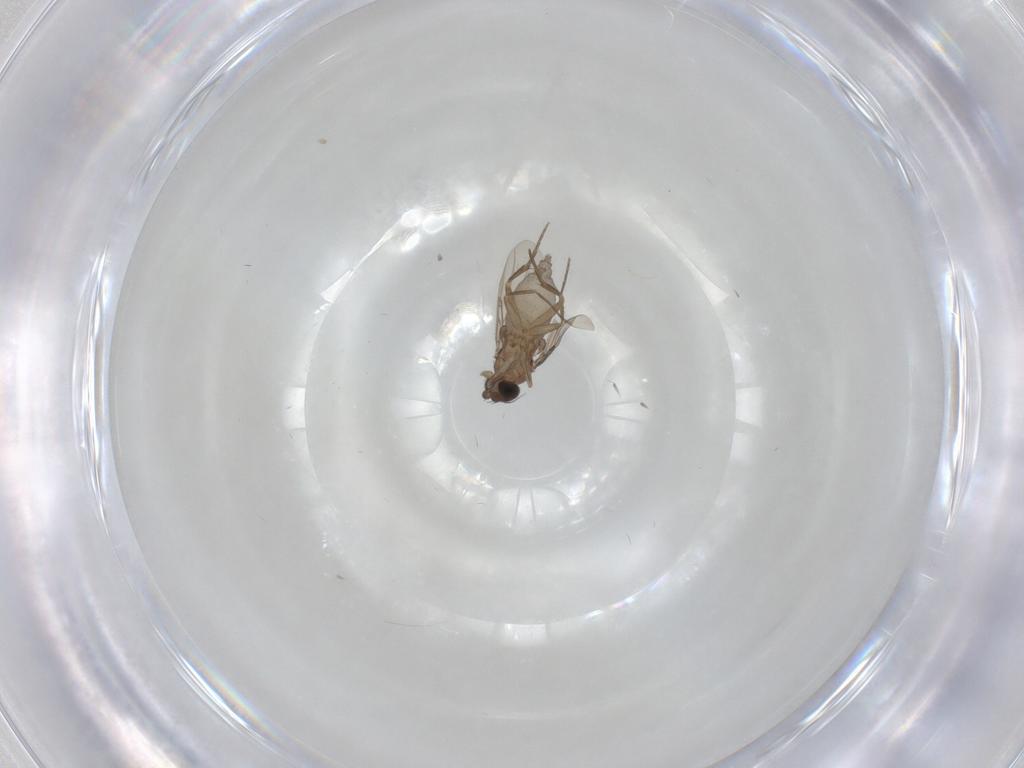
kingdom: Animalia
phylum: Arthropoda
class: Insecta
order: Diptera
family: Phoridae
